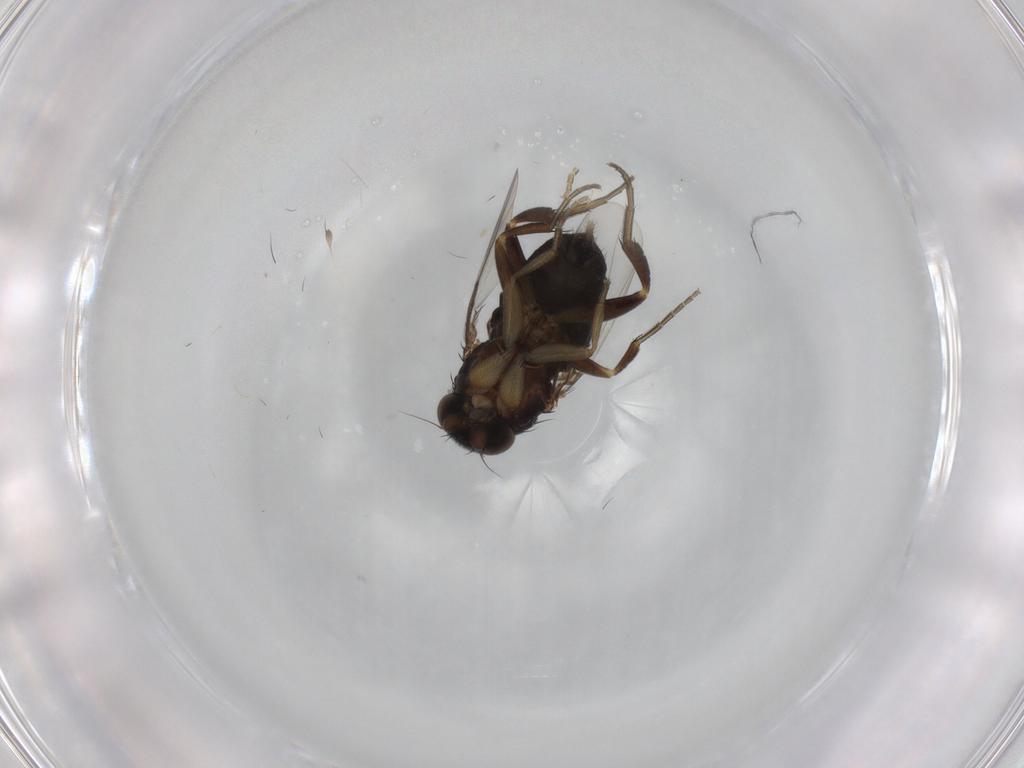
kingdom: Animalia
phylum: Arthropoda
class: Insecta
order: Diptera
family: Phoridae
